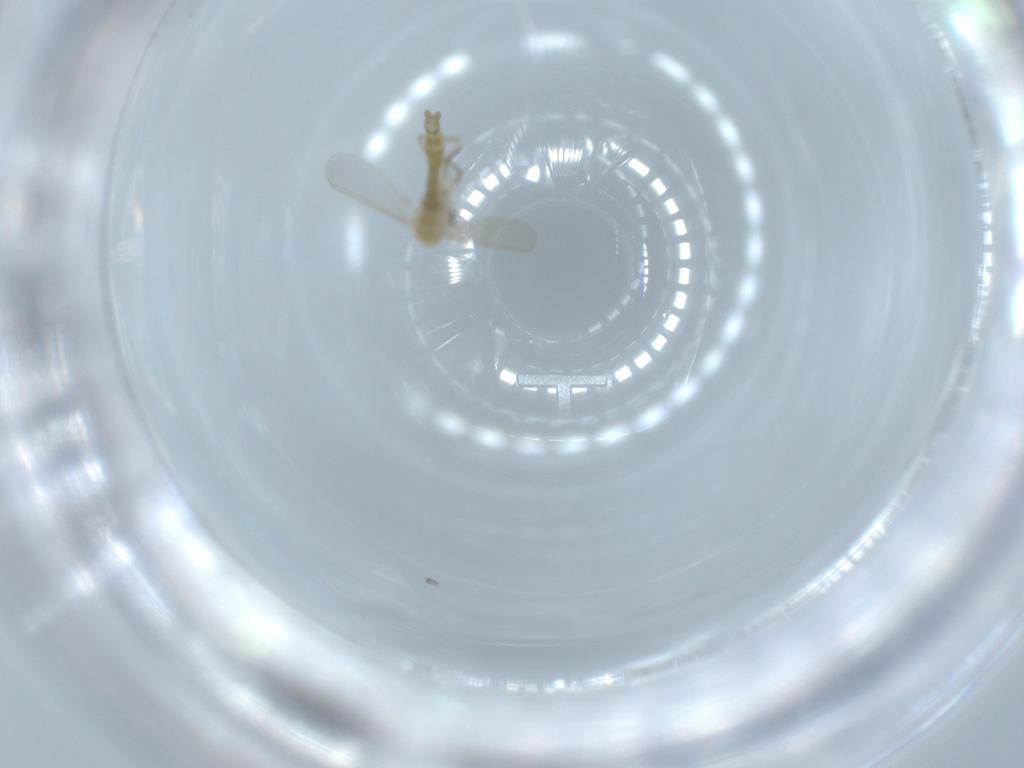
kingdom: Animalia
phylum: Arthropoda
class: Insecta
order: Diptera
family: Chironomidae
